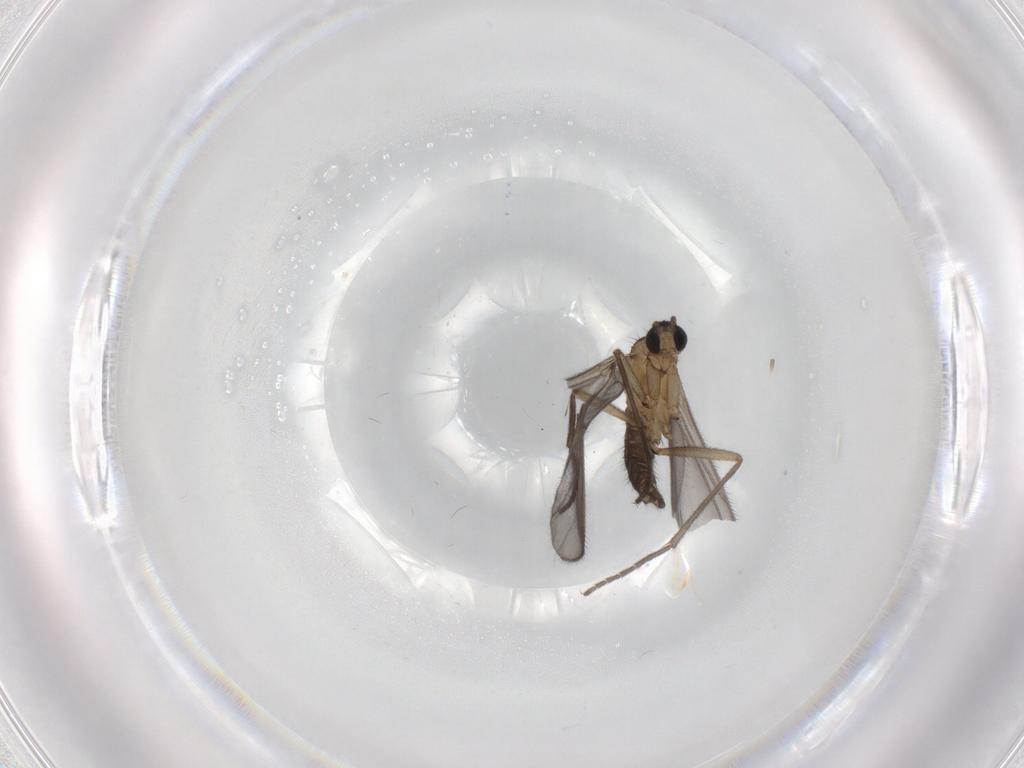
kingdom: Animalia
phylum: Arthropoda
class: Insecta
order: Diptera
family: Sciaridae
